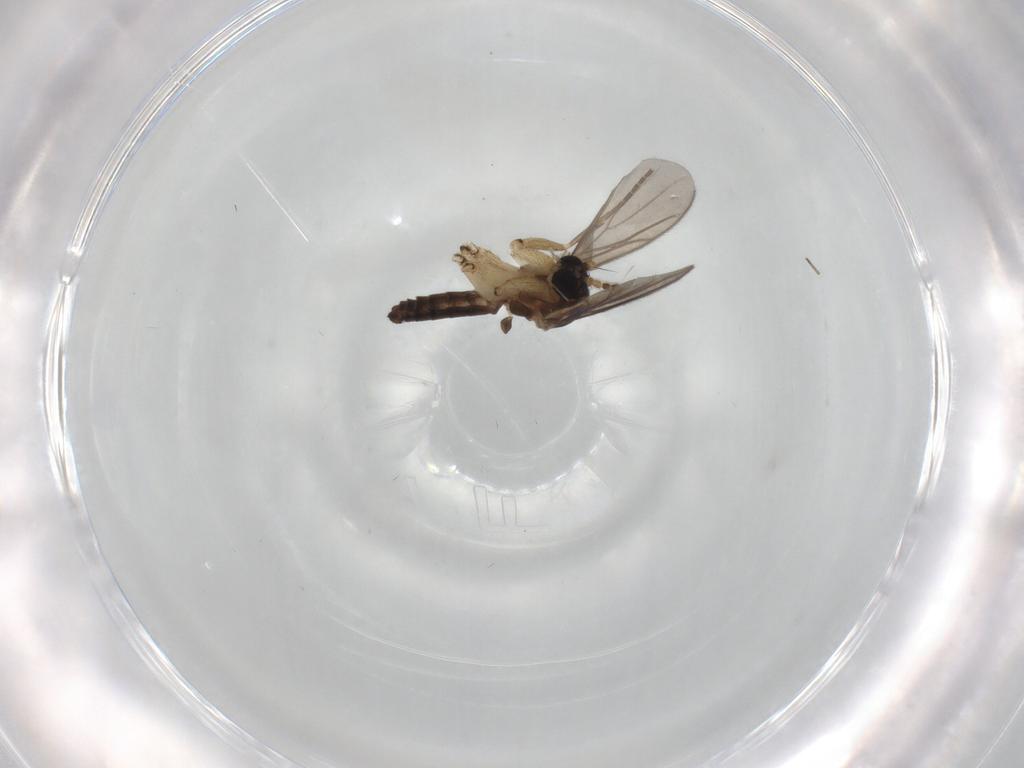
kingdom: Animalia
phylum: Arthropoda
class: Insecta
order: Diptera
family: Mycetophilidae
